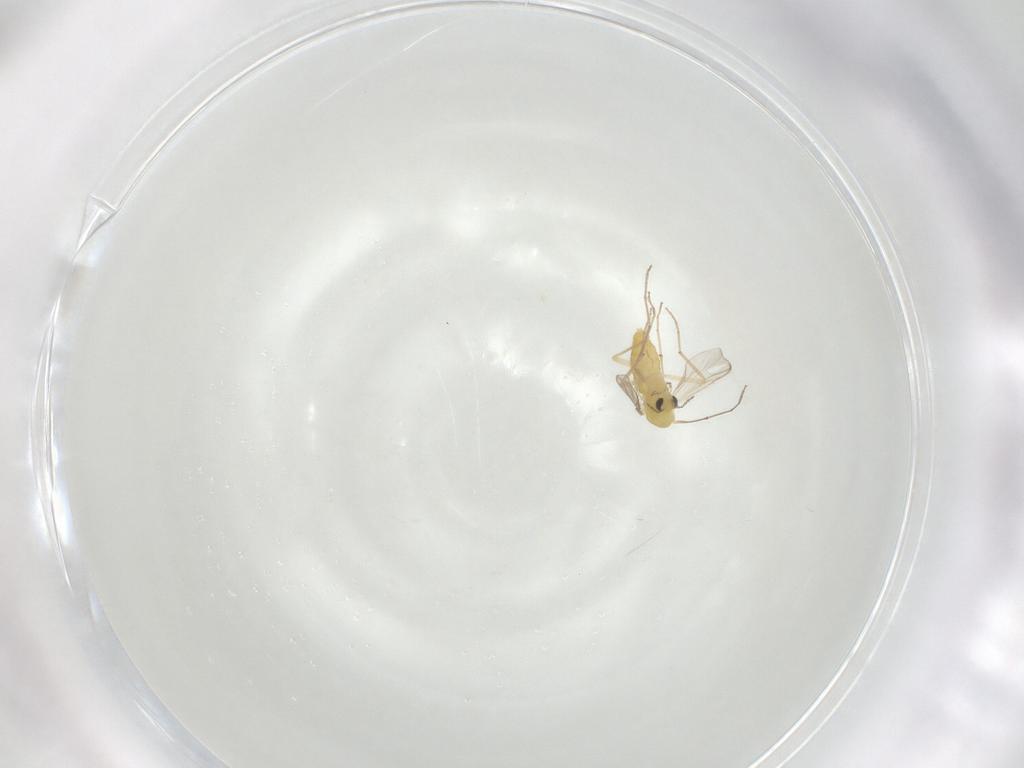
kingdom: Animalia
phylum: Arthropoda
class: Insecta
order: Diptera
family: Chironomidae
